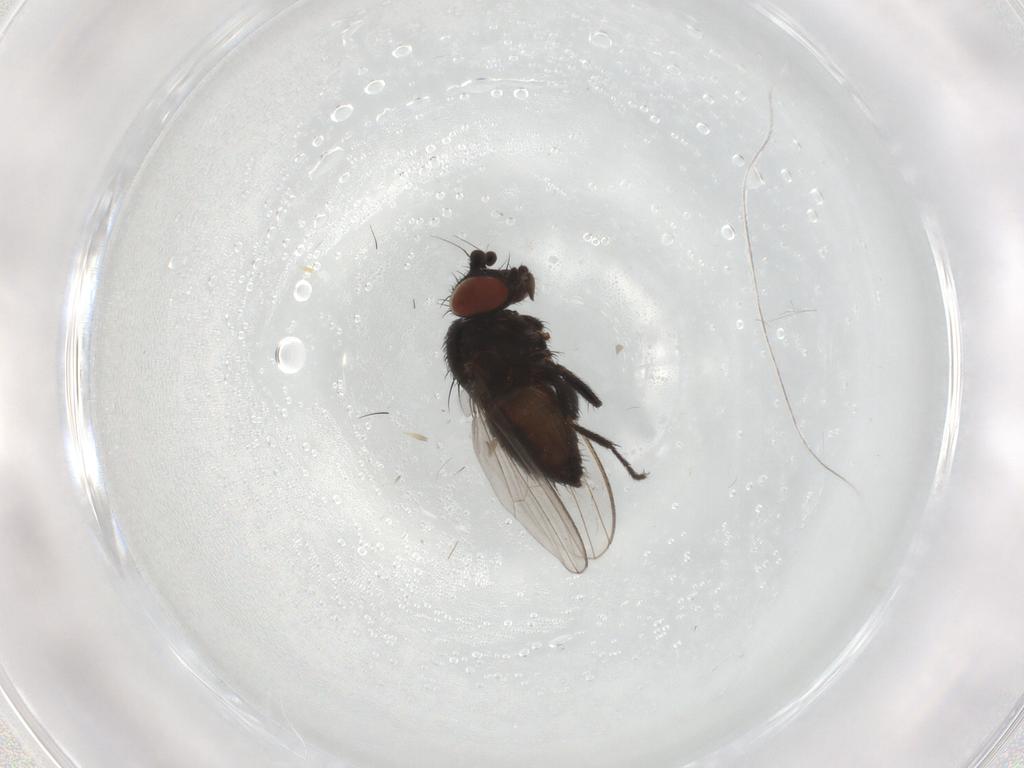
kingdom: Animalia
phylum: Arthropoda
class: Insecta
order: Diptera
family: Milichiidae
